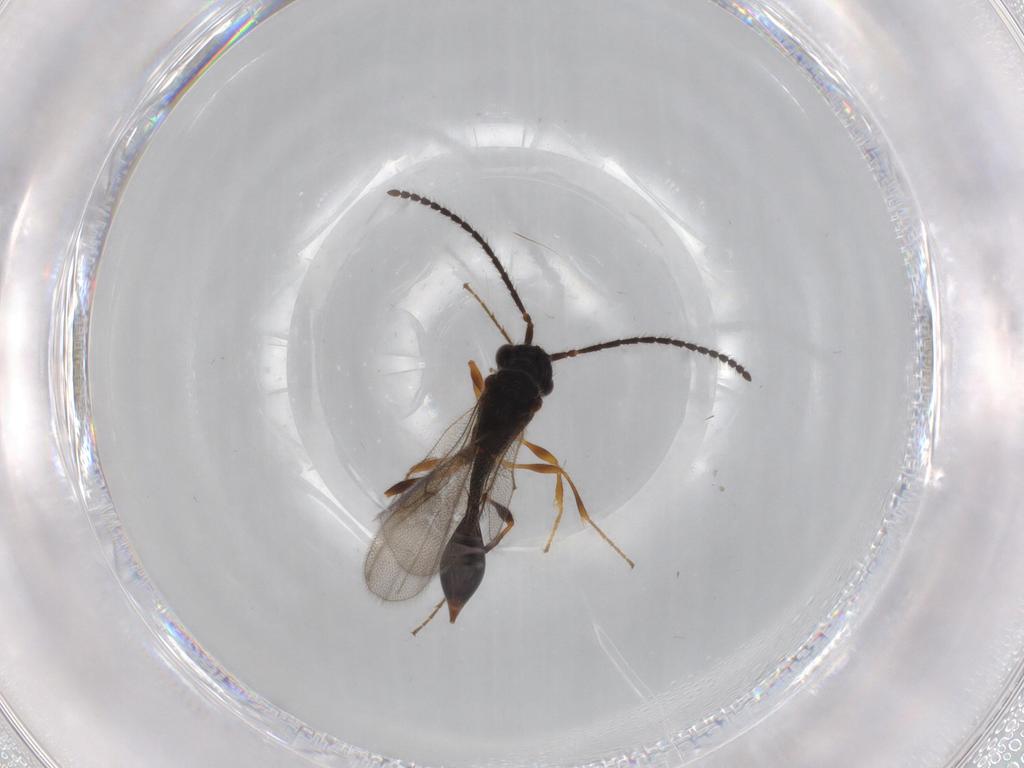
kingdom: Animalia
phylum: Arthropoda
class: Insecta
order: Hymenoptera
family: Diapriidae
